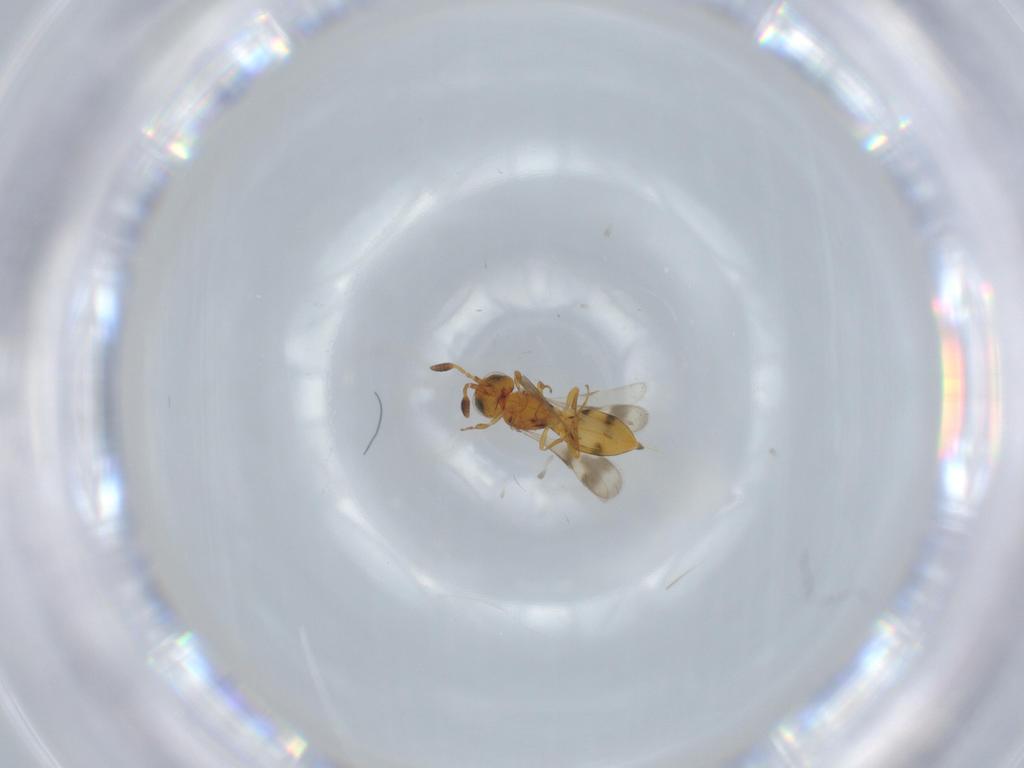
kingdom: Animalia
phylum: Arthropoda
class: Insecta
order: Hymenoptera
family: Scelionidae
